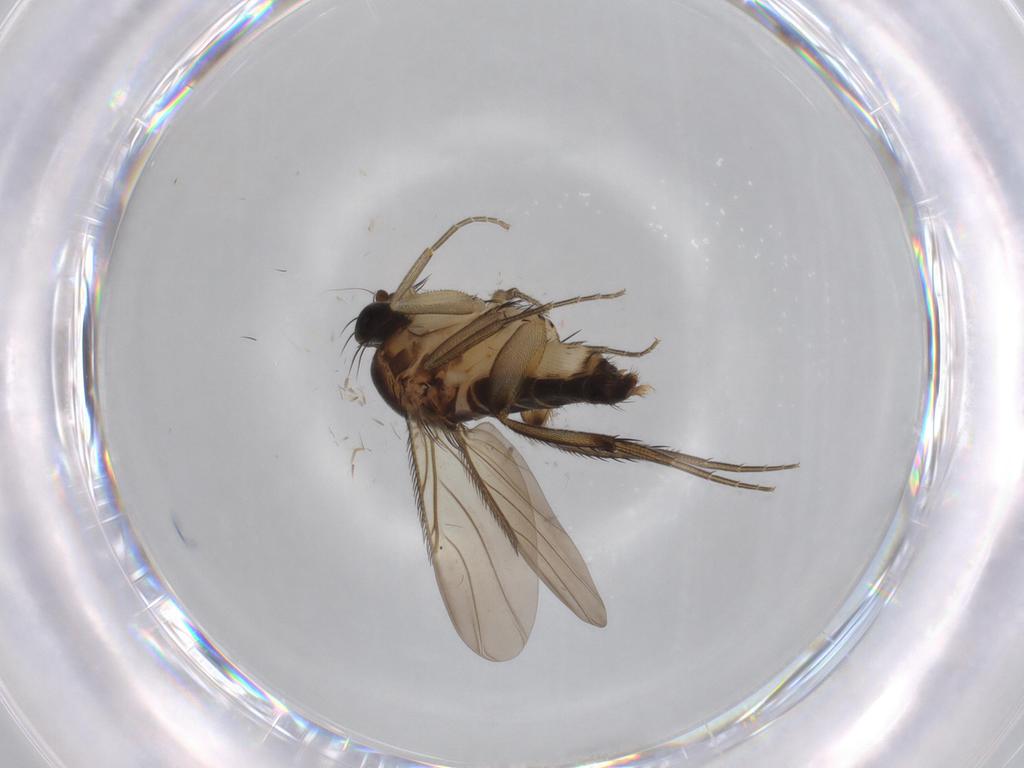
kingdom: Animalia
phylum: Arthropoda
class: Insecta
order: Diptera
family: Phoridae
